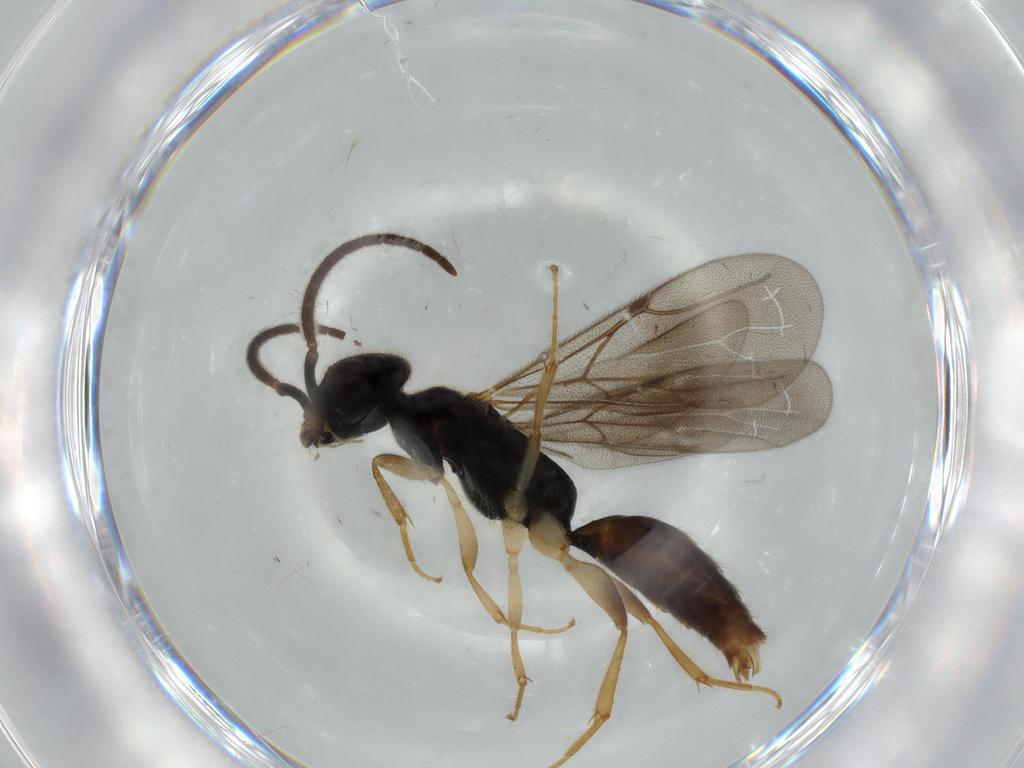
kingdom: Animalia
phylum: Arthropoda
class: Insecta
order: Hymenoptera
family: Bethylidae
